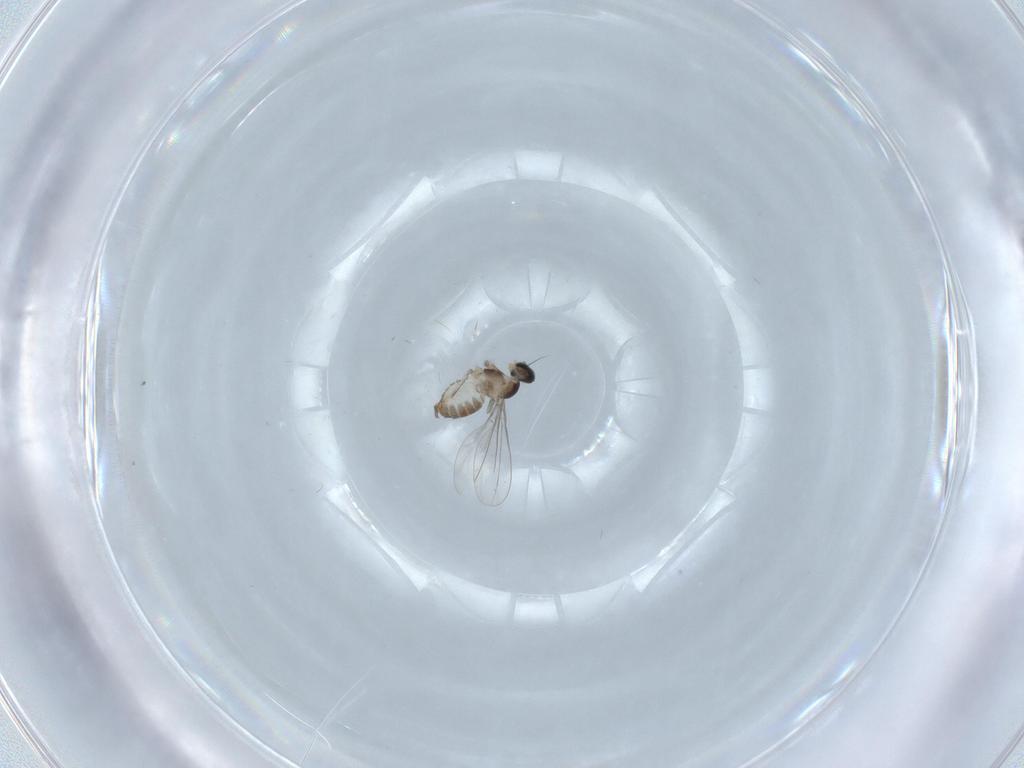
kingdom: Animalia
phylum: Arthropoda
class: Insecta
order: Diptera
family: Cecidomyiidae
